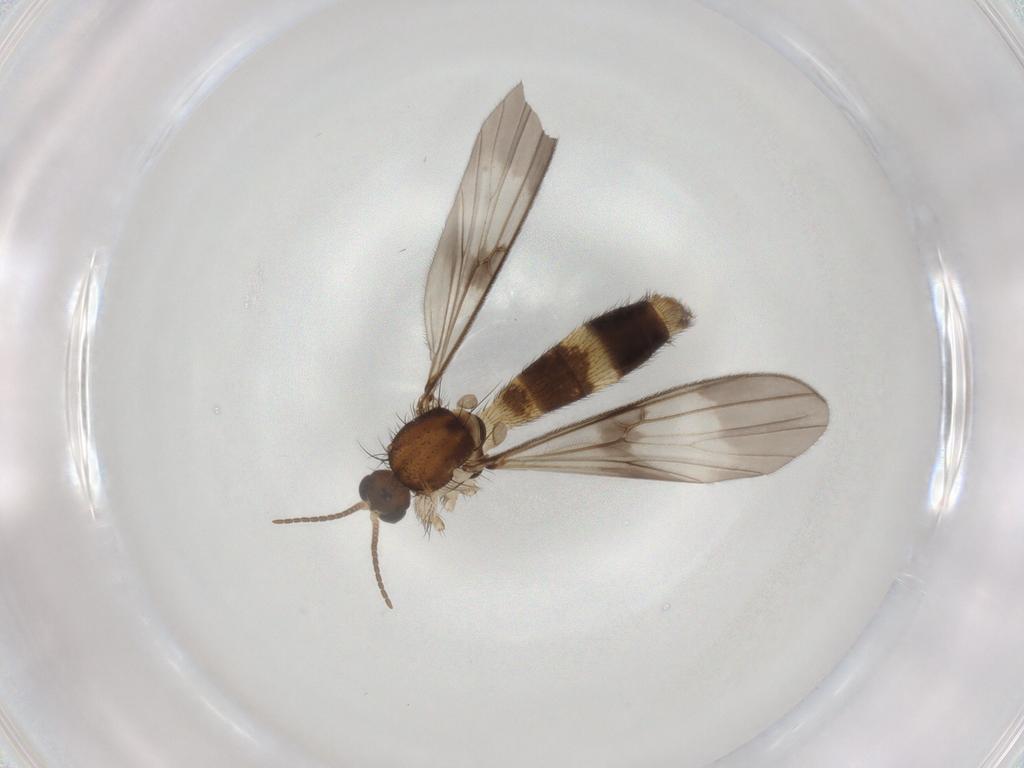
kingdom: Animalia
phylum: Arthropoda
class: Insecta
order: Diptera
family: Mycetophilidae
